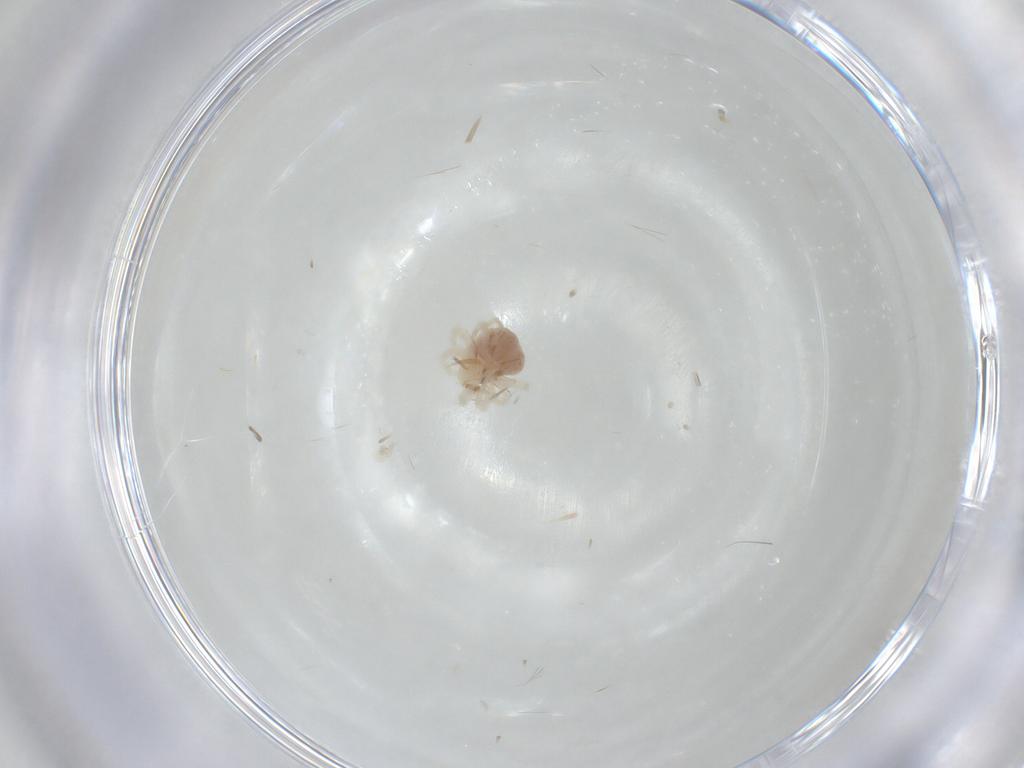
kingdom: Animalia
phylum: Arthropoda
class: Arachnida
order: Trombidiformes
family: Anystidae
